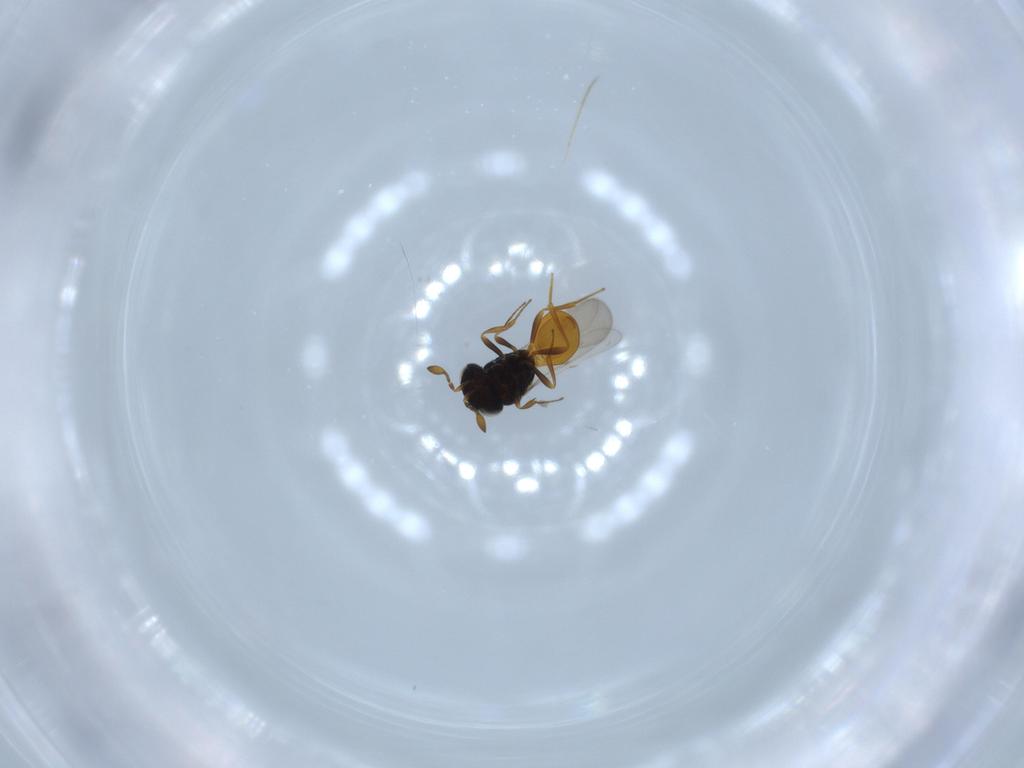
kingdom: Animalia
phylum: Arthropoda
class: Insecta
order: Hymenoptera
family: Scelionidae
